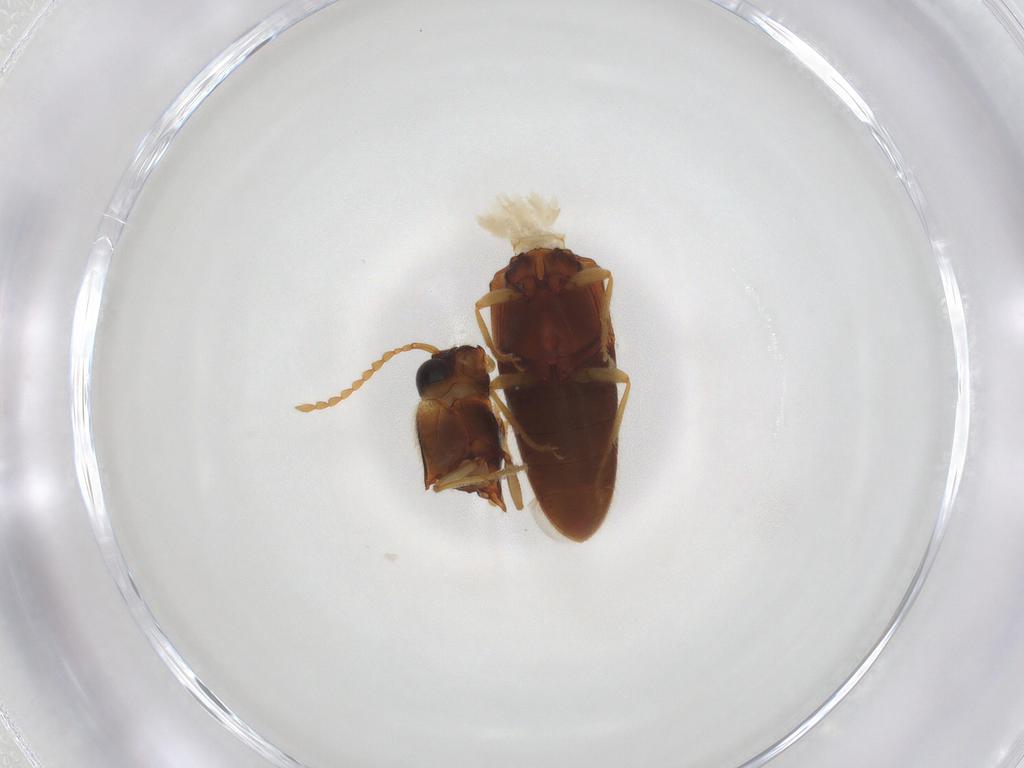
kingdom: Animalia
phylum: Arthropoda
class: Insecta
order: Coleoptera
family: Elateridae
